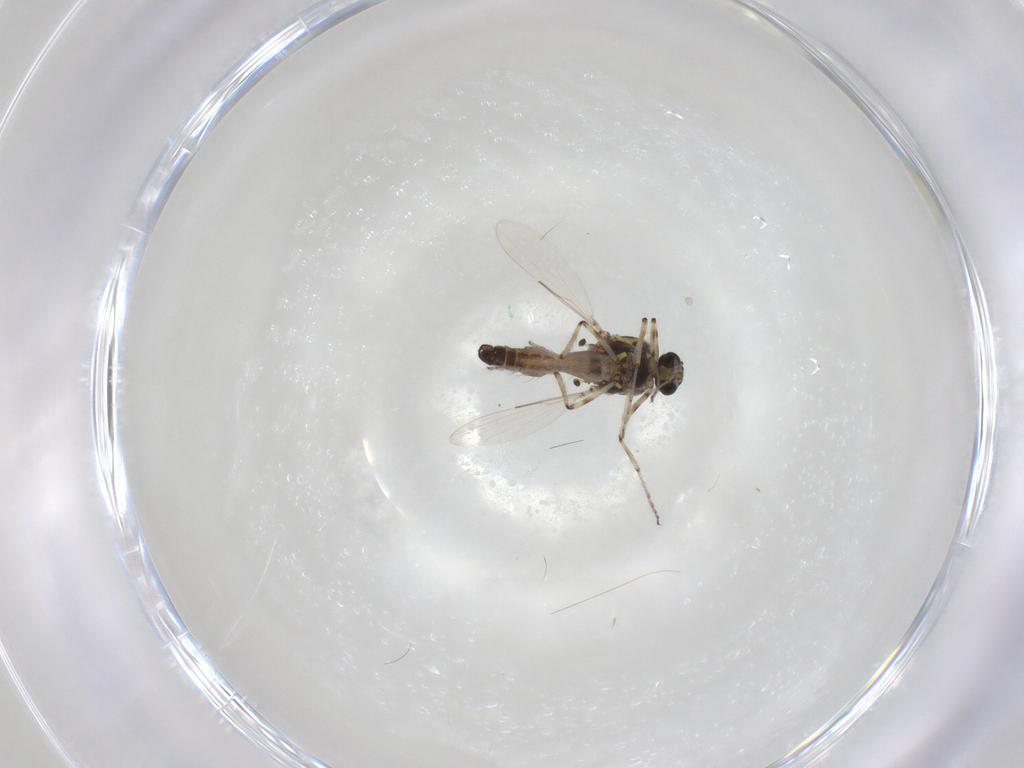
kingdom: Animalia
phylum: Arthropoda
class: Insecta
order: Diptera
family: Ceratopogonidae
